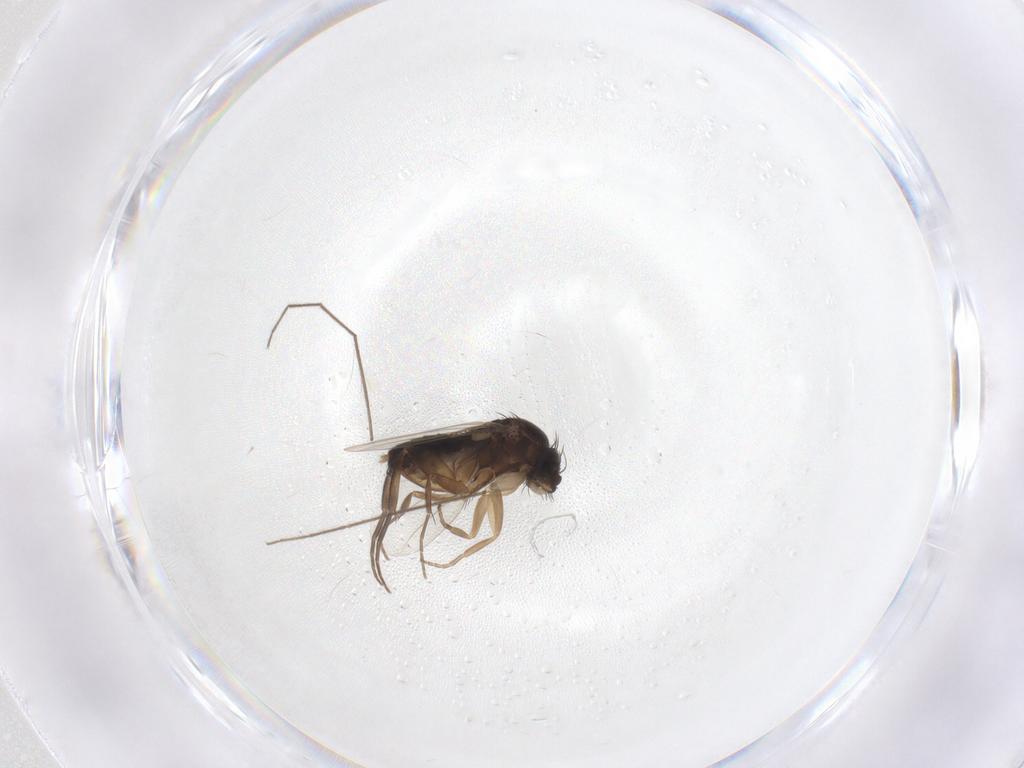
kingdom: Animalia
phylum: Arthropoda
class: Insecta
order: Diptera
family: Phoridae
